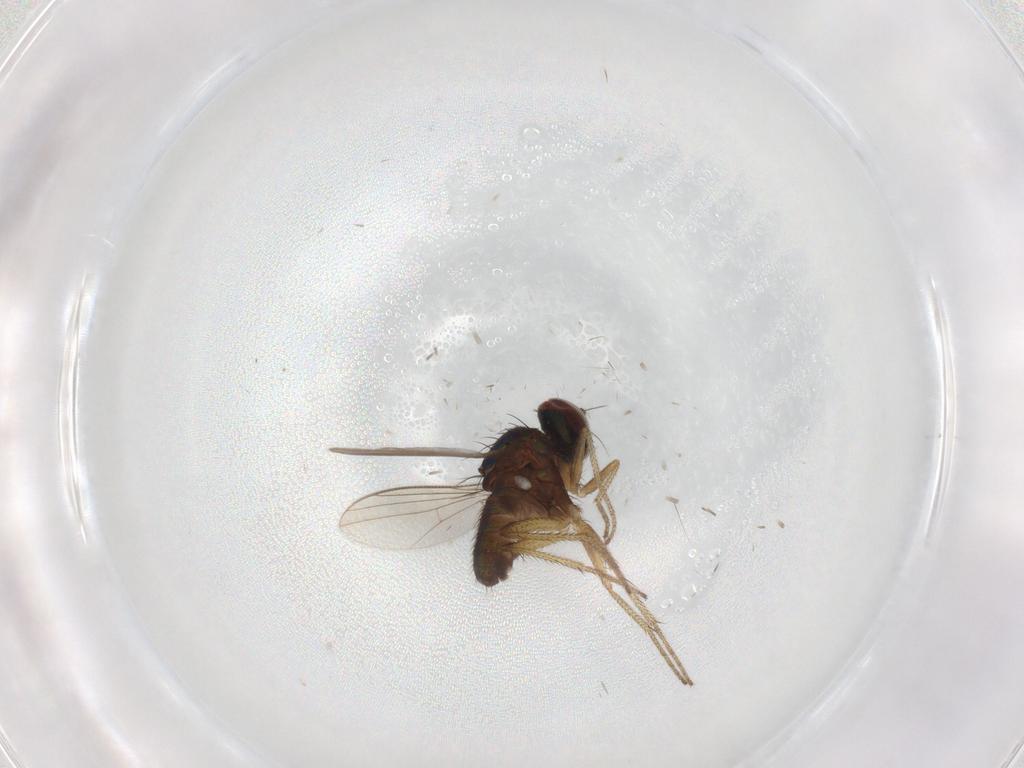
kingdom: Animalia
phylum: Arthropoda
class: Insecta
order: Diptera
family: Dolichopodidae
